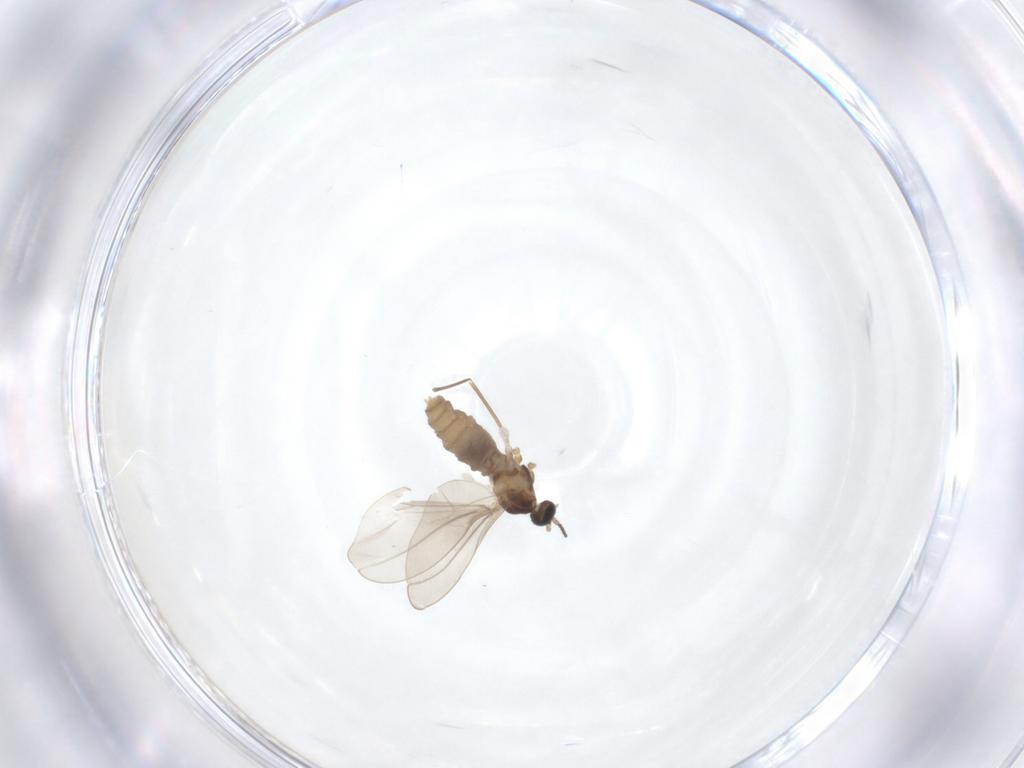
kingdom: Animalia
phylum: Arthropoda
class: Insecta
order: Diptera
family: Cecidomyiidae
